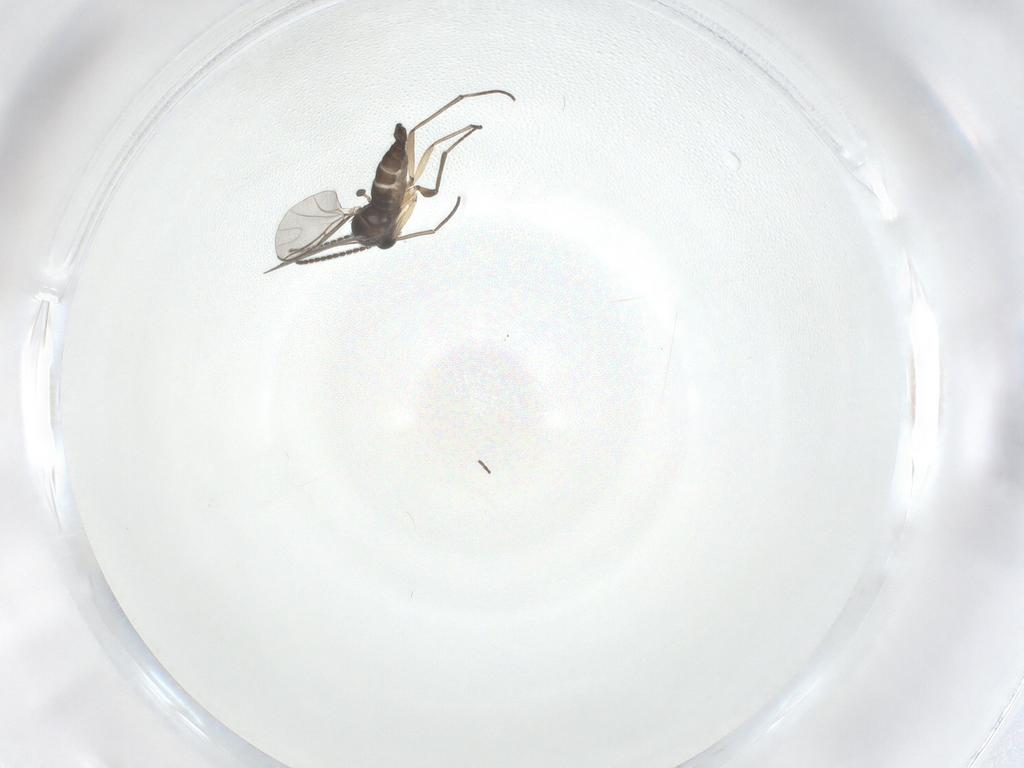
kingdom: Animalia
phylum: Arthropoda
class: Insecta
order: Diptera
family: Sciaridae
